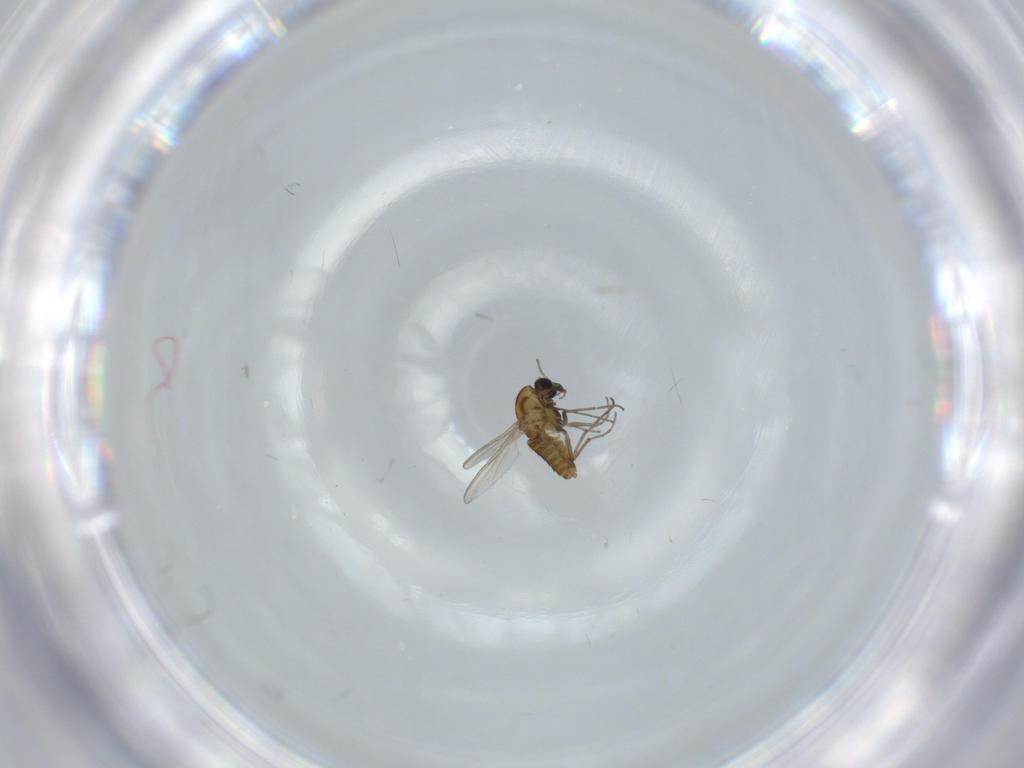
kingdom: Animalia
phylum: Arthropoda
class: Insecta
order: Diptera
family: Chironomidae
